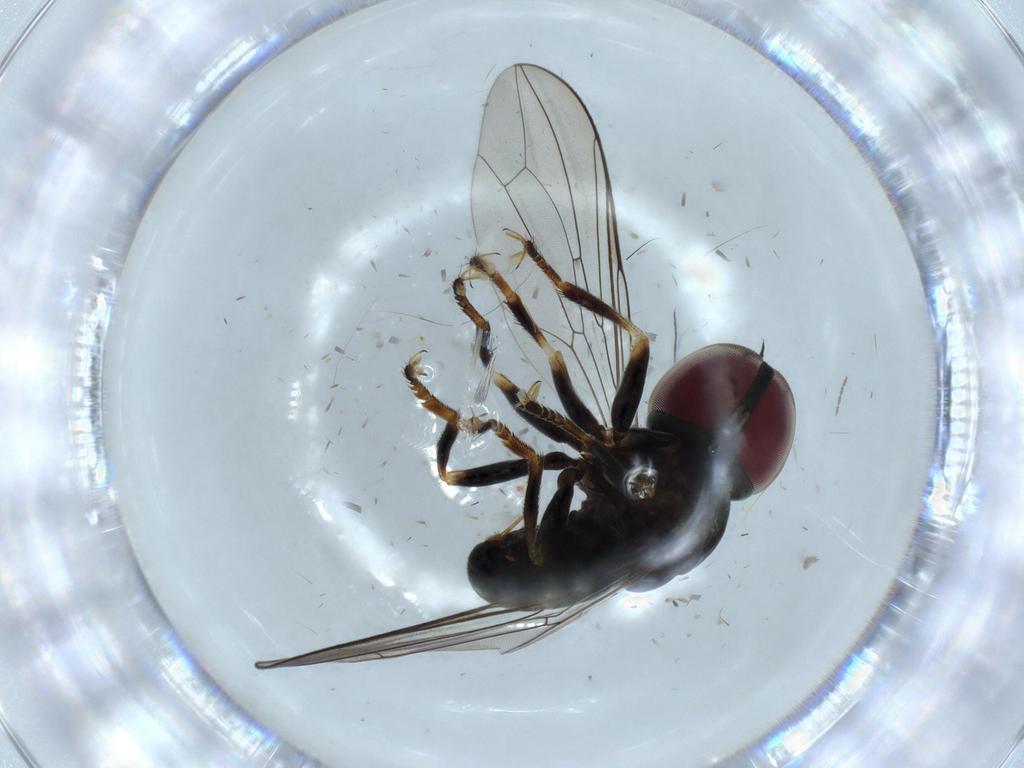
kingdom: Animalia
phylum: Arthropoda
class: Insecta
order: Diptera
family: Pipunculidae
